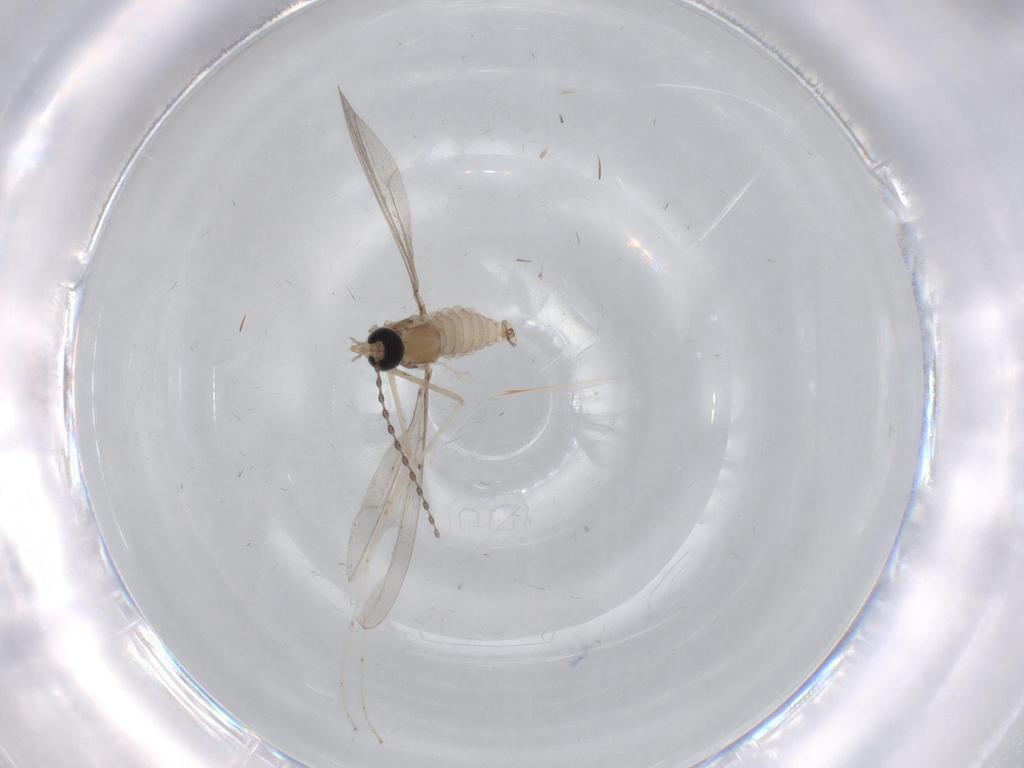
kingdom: Animalia
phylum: Arthropoda
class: Insecta
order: Diptera
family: Cecidomyiidae
